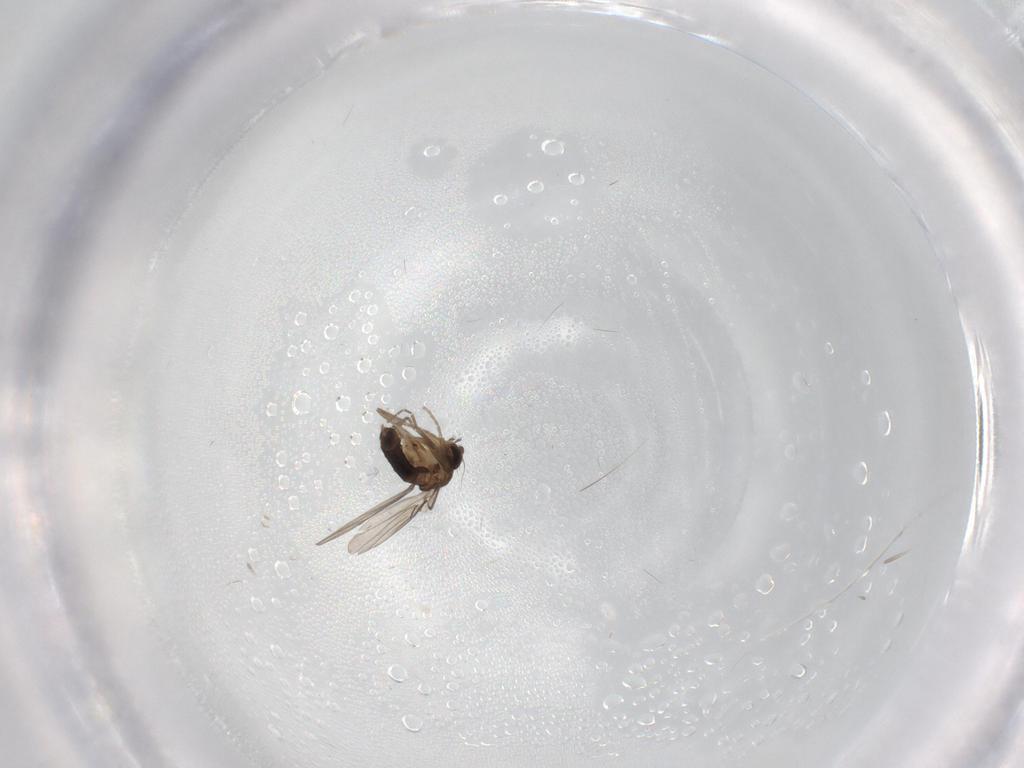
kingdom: Animalia
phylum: Arthropoda
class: Insecta
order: Diptera
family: Phoridae
